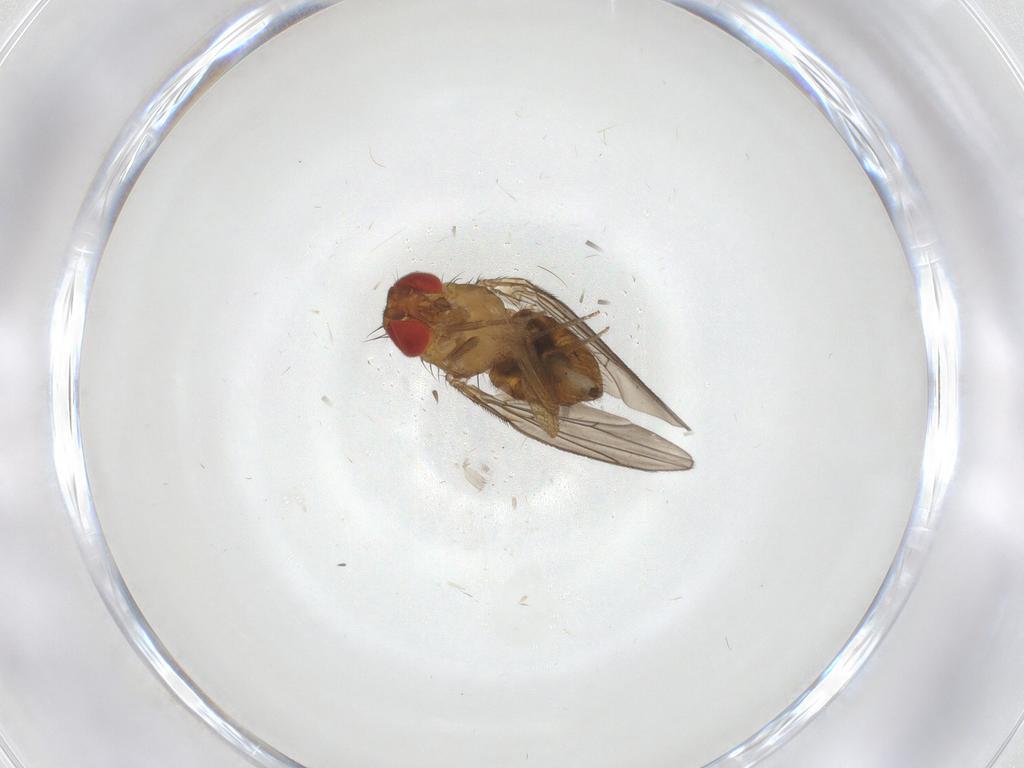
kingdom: Animalia
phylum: Arthropoda
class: Insecta
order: Diptera
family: Drosophilidae
